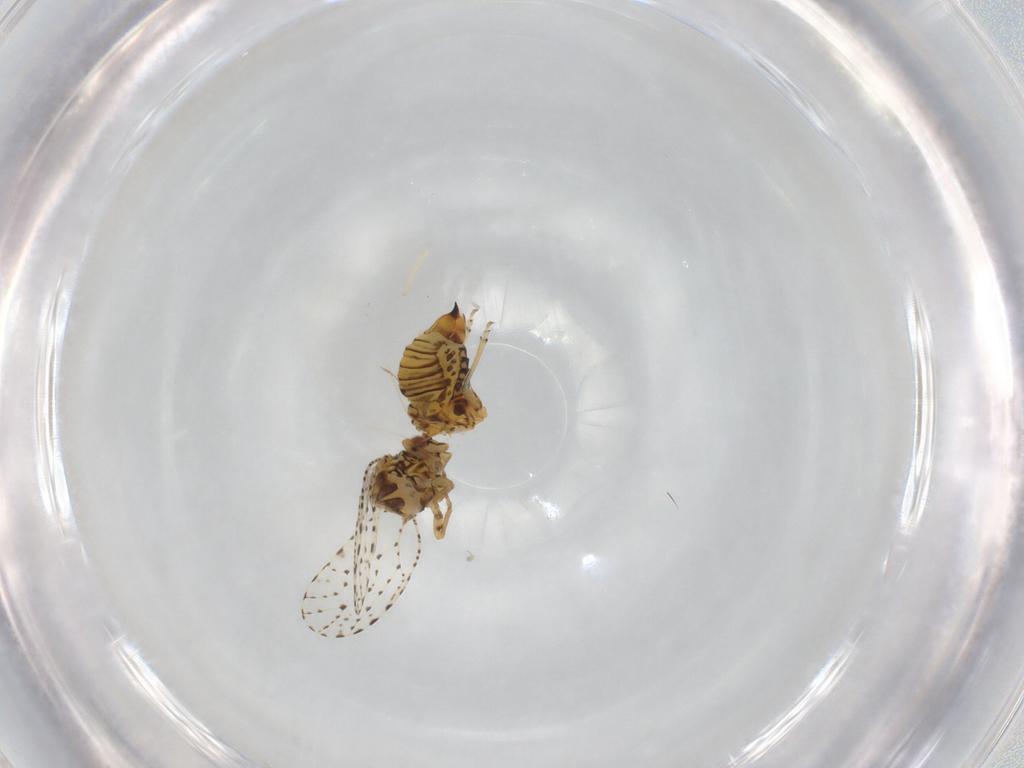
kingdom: Animalia
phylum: Arthropoda
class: Insecta
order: Hemiptera
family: Psyllidae
